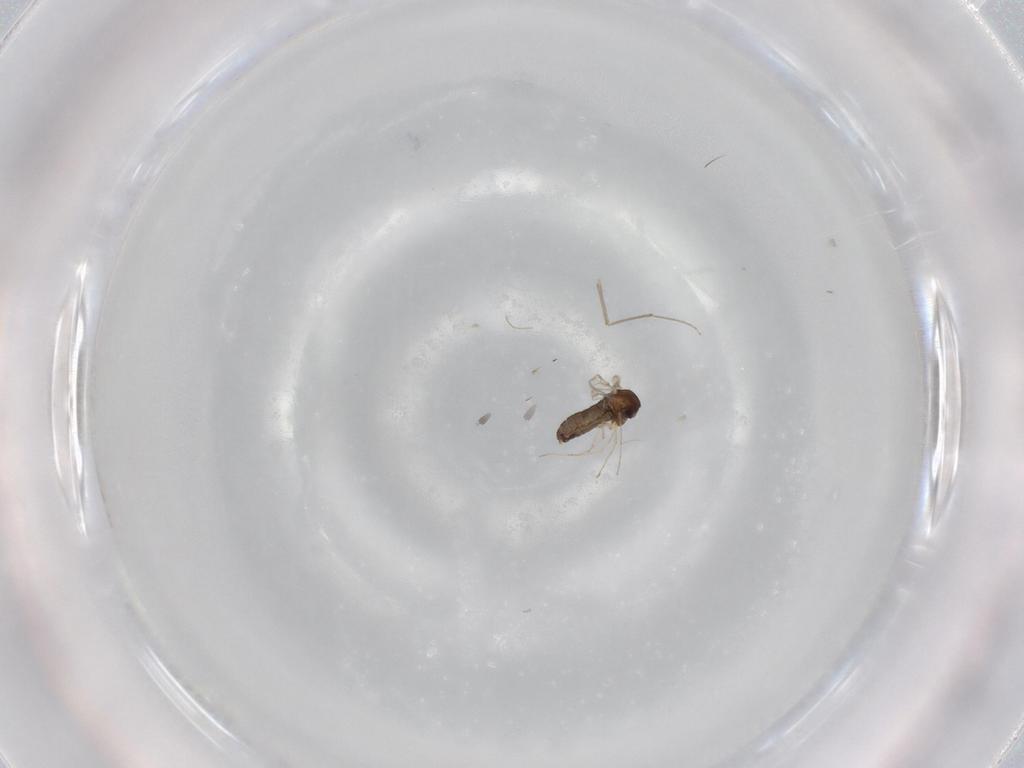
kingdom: Animalia
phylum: Arthropoda
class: Insecta
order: Diptera
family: Chironomidae
